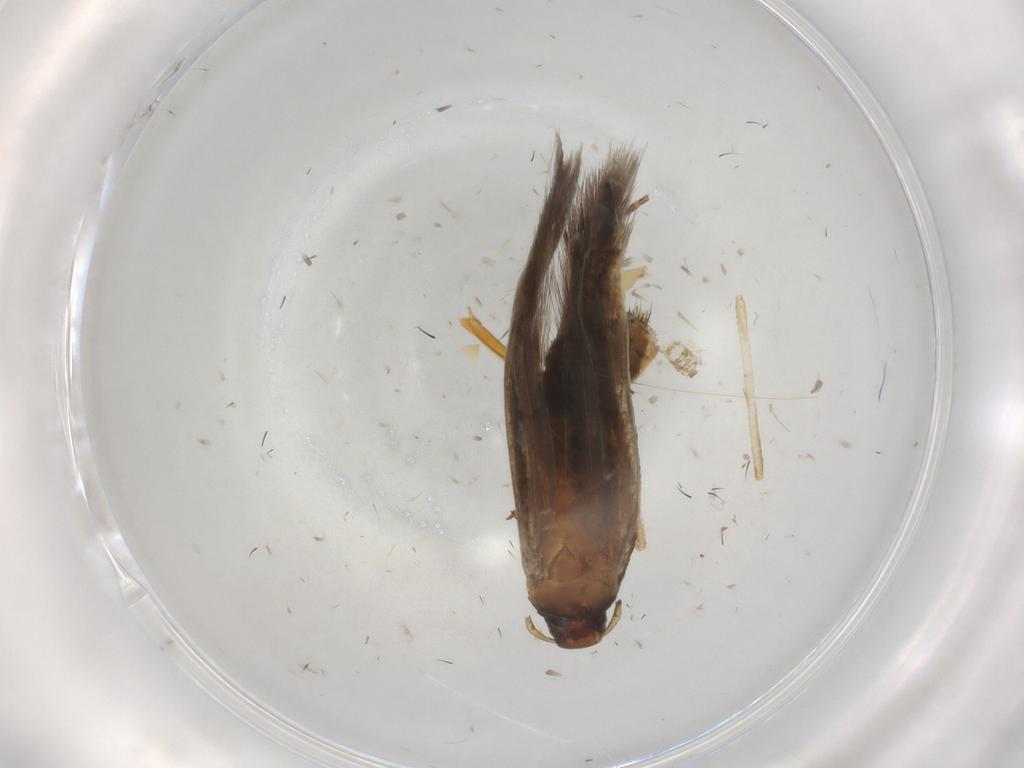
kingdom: Animalia
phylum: Arthropoda
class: Insecta
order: Lepidoptera
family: Gelechiidae
